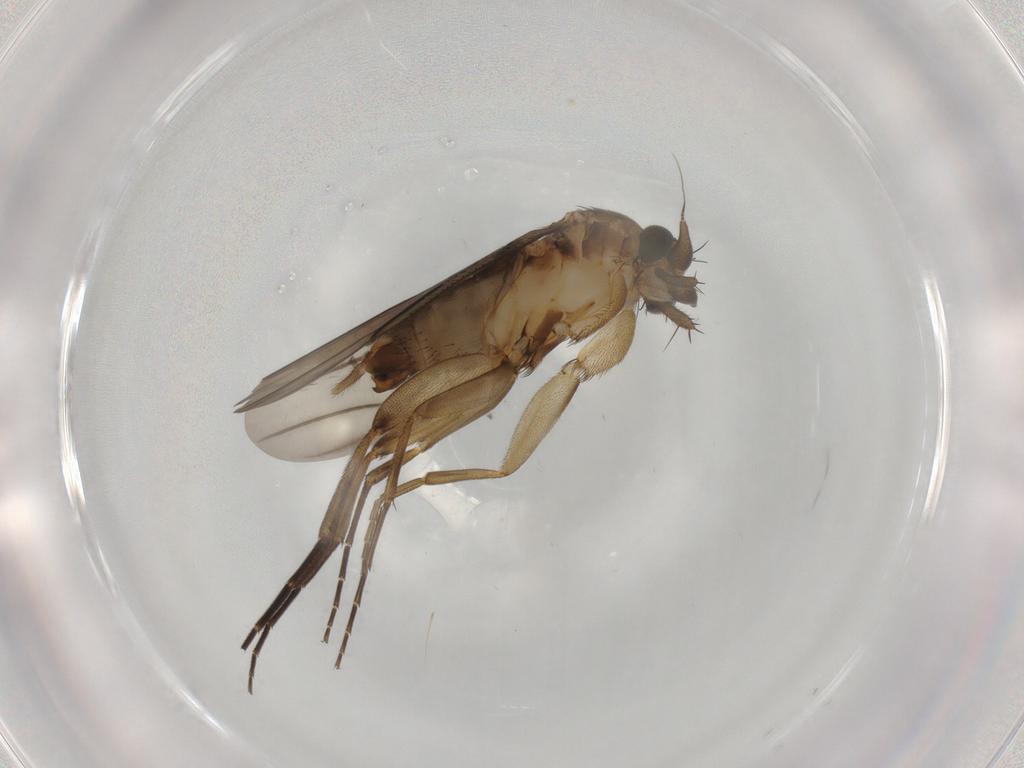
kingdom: Animalia
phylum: Arthropoda
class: Insecta
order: Diptera
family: Phoridae
